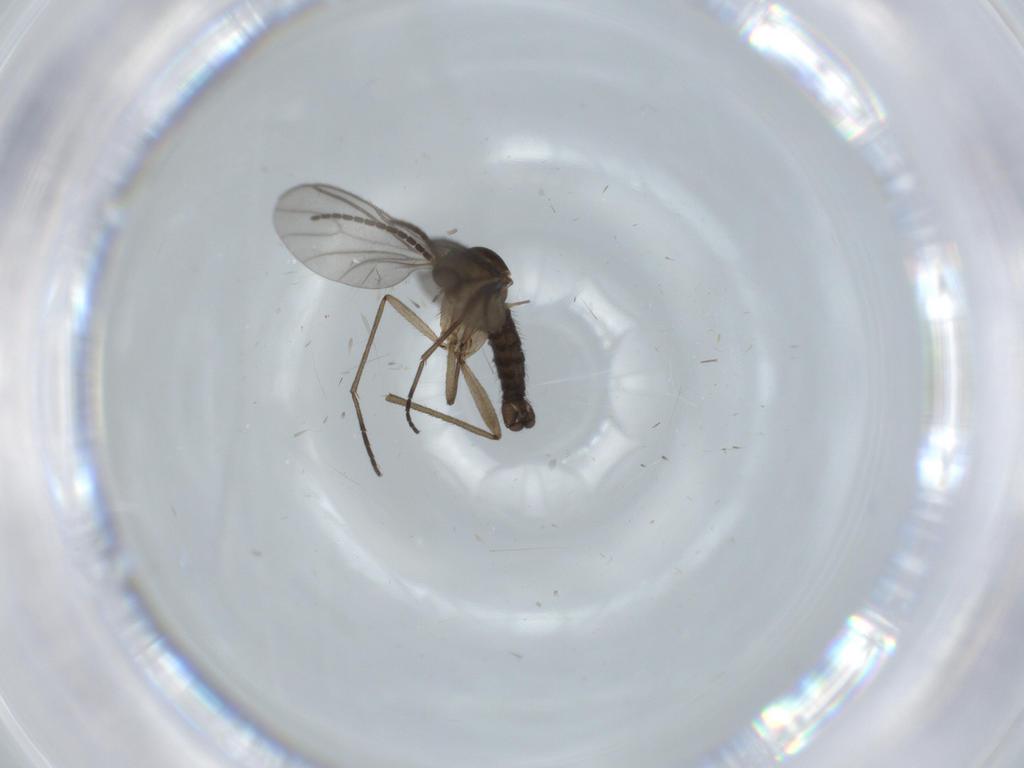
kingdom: Animalia
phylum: Arthropoda
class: Insecta
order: Diptera
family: Sciaridae
